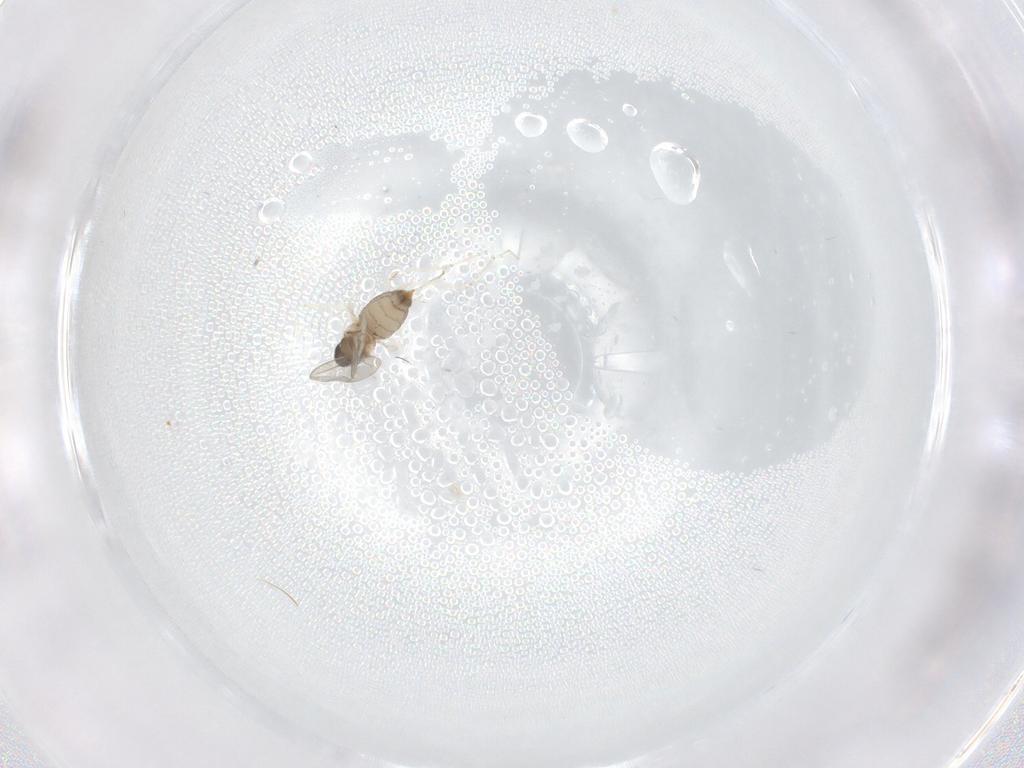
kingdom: Animalia
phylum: Arthropoda
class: Insecta
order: Diptera
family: Cecidomyiidae
